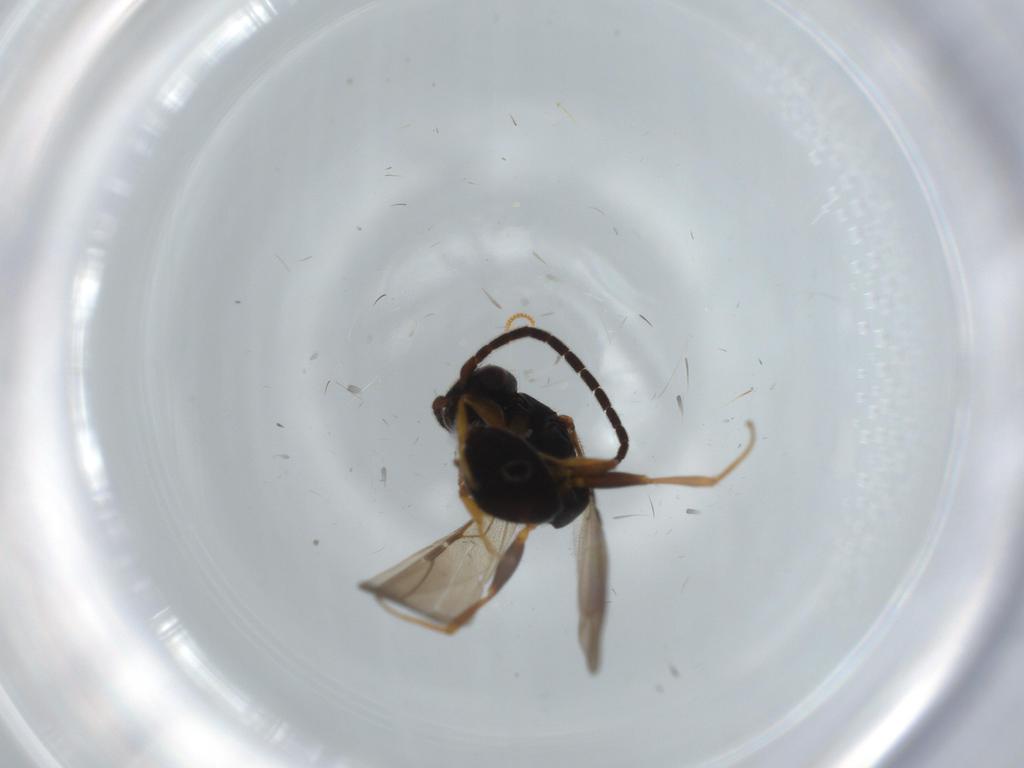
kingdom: Animalia
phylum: Arthropoda
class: Insecta
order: Hymenoptera
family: Bethylidae
